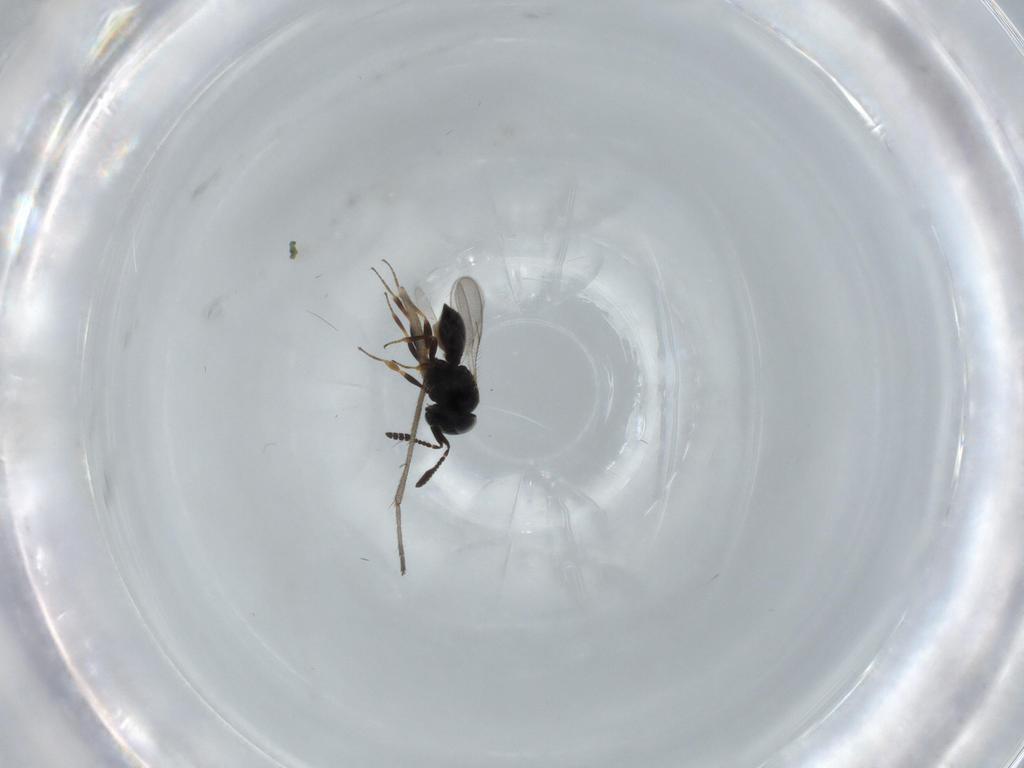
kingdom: Animalia
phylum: Arthropoda
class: Insecta
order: Hymenoptera
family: Scelionidae
